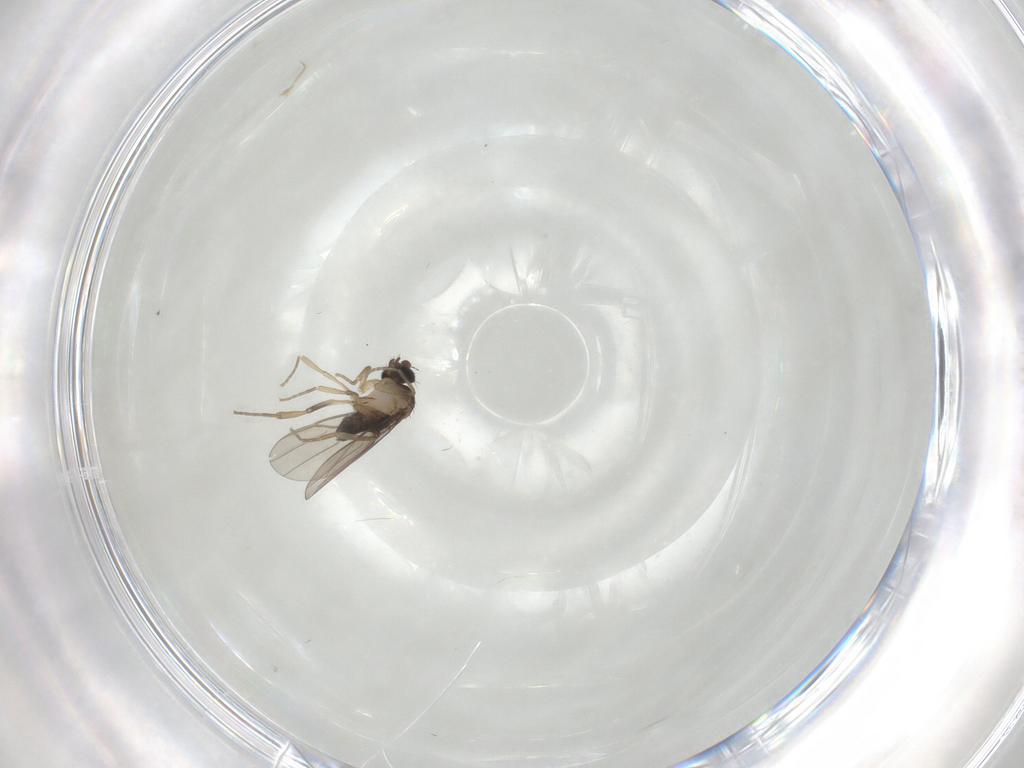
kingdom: Animalia
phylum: Arthropoda
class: Insecta
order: Diptera
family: Phoridae
